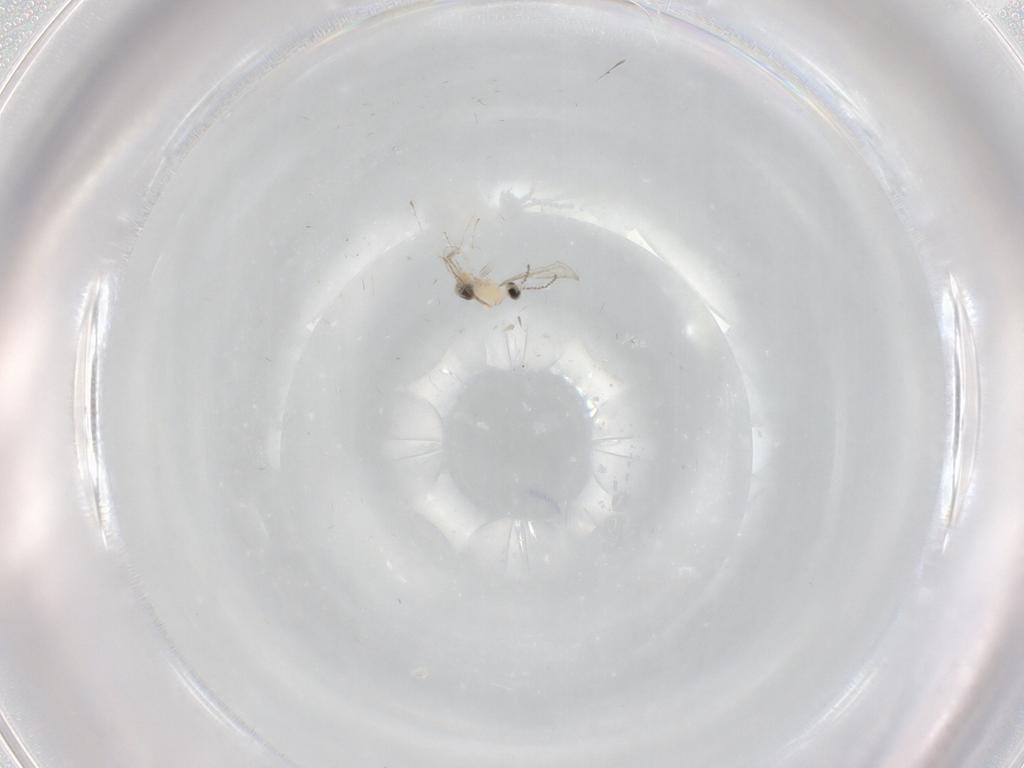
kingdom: Animalia
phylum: Arthropoda
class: Insecta
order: Diptera
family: Cecidomyiidae
